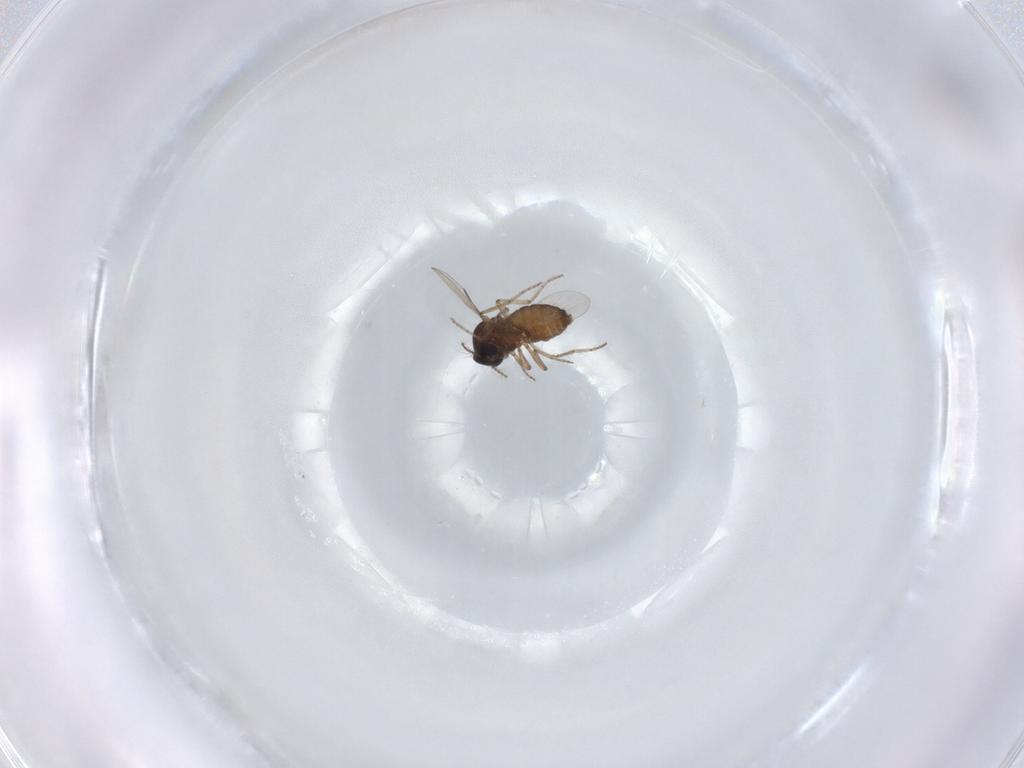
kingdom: Animalia
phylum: Arthropoda
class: Insecta
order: Diptera
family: Ceratopogonidae
